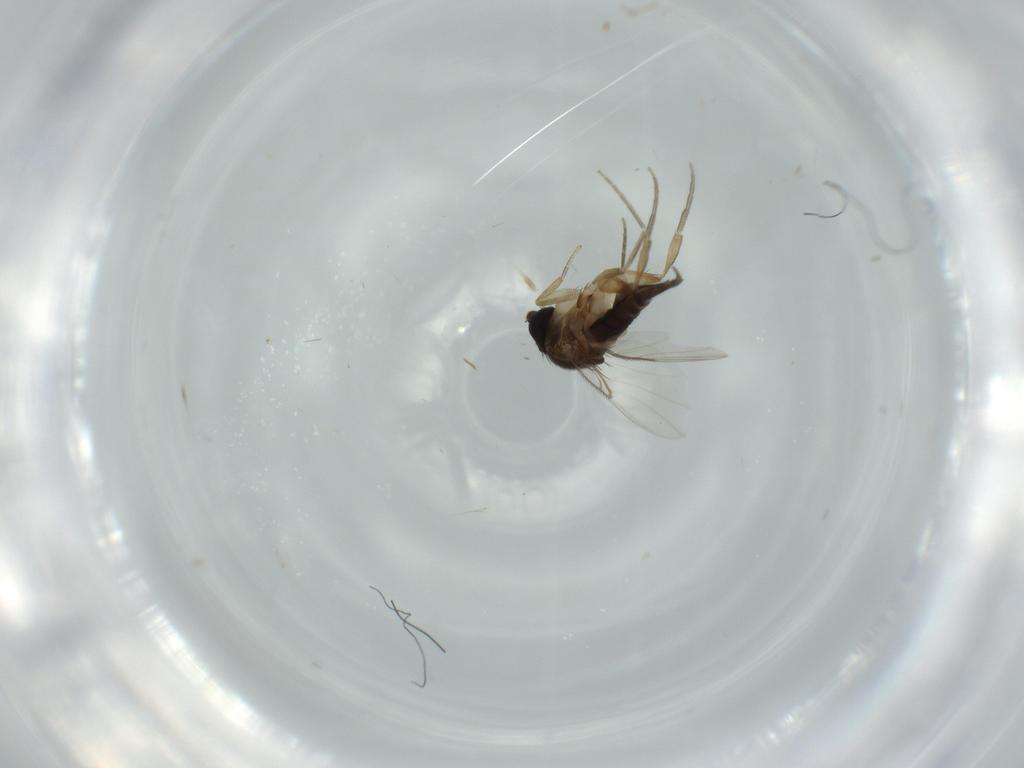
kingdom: Animalia
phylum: Arthropoda
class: Insecta
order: Diptera
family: Phoridae
